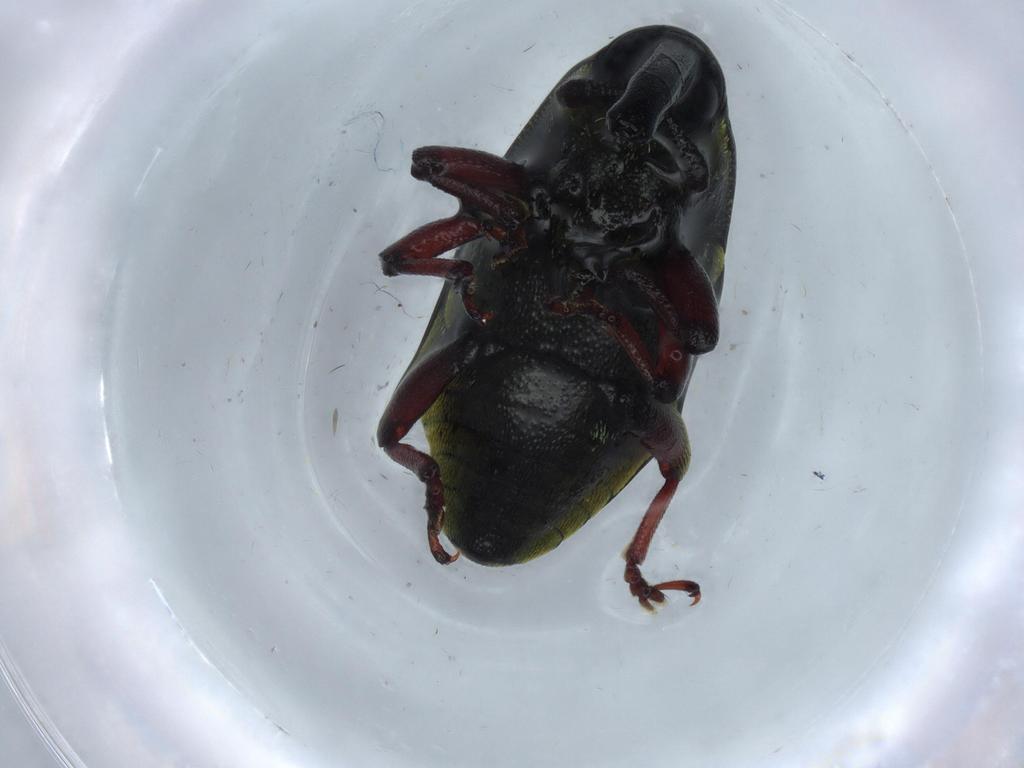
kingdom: Animalia
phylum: Arthropoda
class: Insecta
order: Coleoptera
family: Curculionidae
